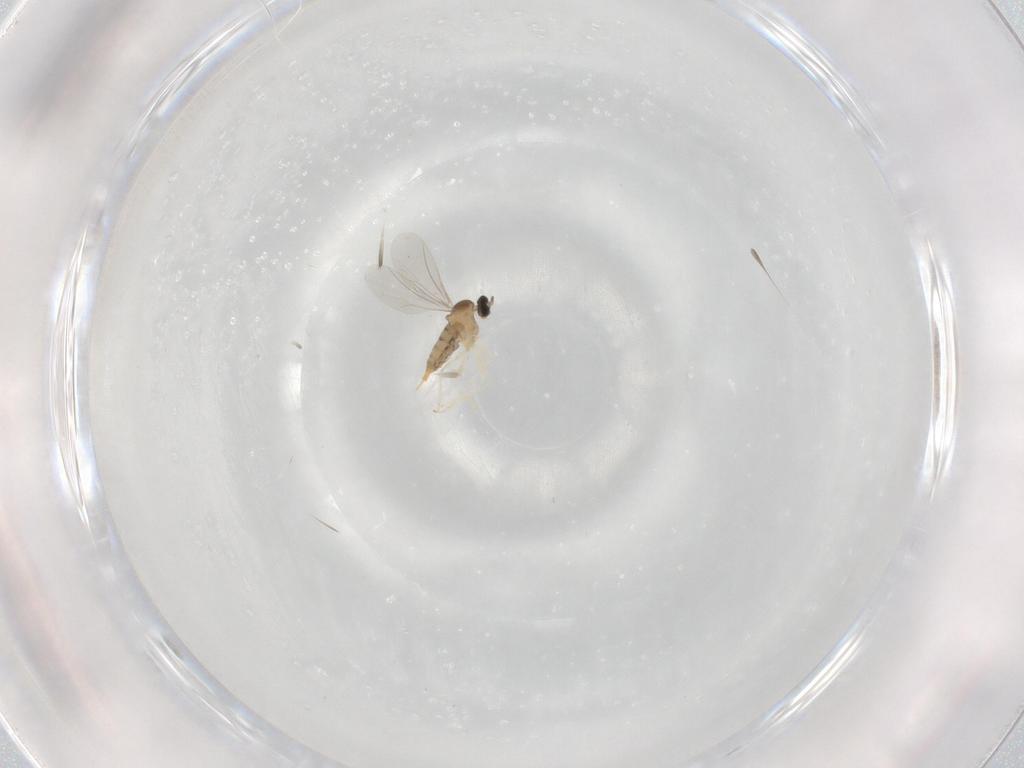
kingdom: Animalia
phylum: Arthropoda
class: Insecta
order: Diptera
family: Cecidomyiidae
